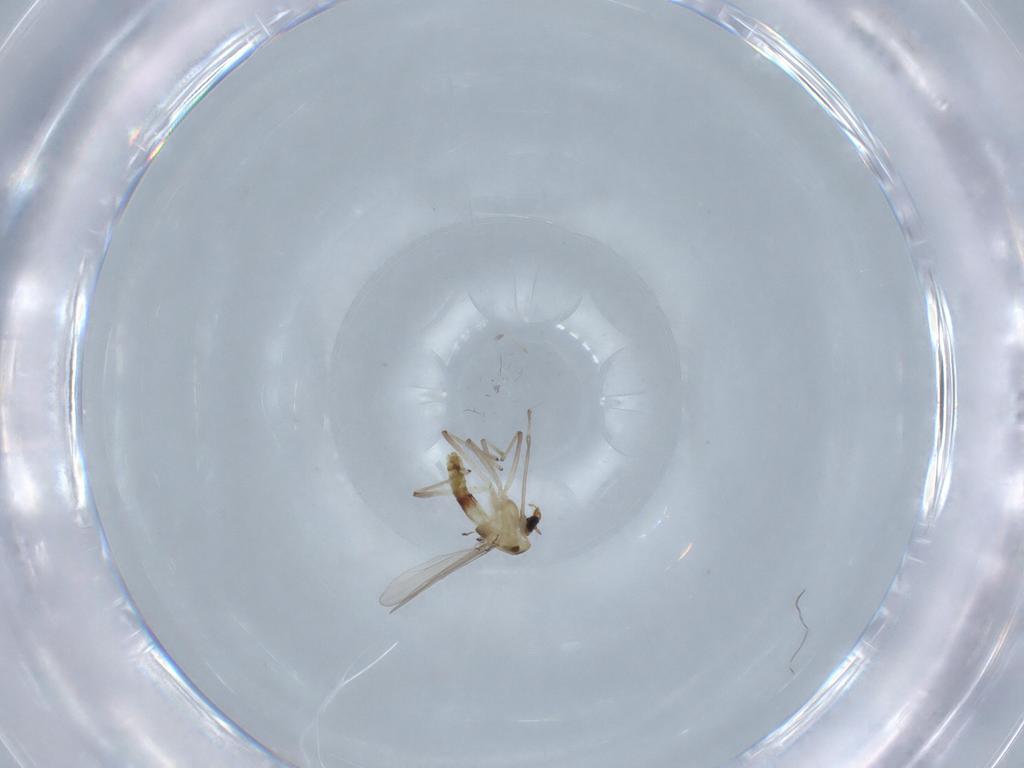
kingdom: Animalia
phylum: Arthropoda
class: Insecta
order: Diptera
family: Chironomidae
